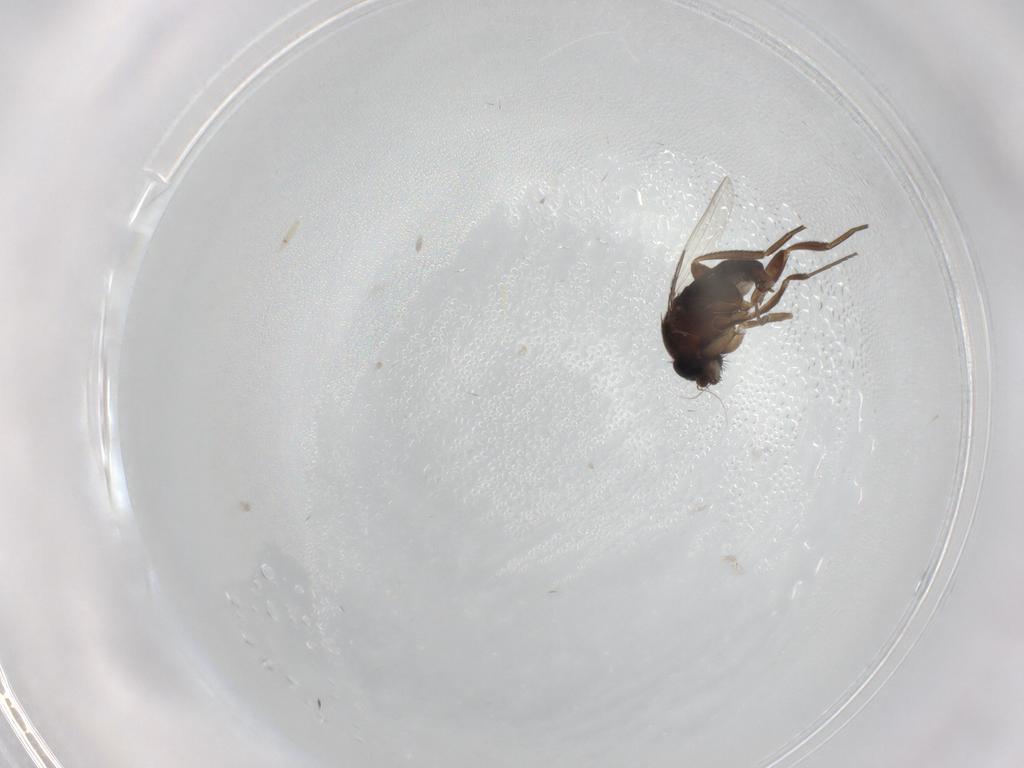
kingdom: Animalia
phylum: Arthropoda
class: Insecta
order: Diptera
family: Phoridae
